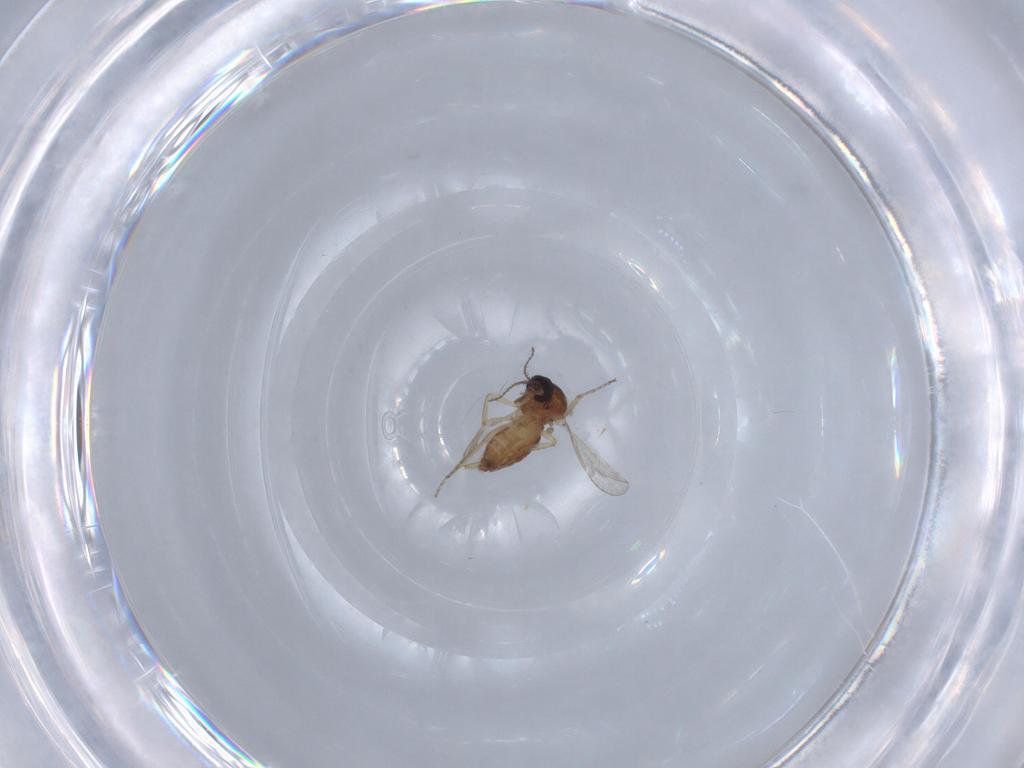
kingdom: Animalia
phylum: Arthropoda
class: Insecta
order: Diptera
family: Ceratopogonidae
